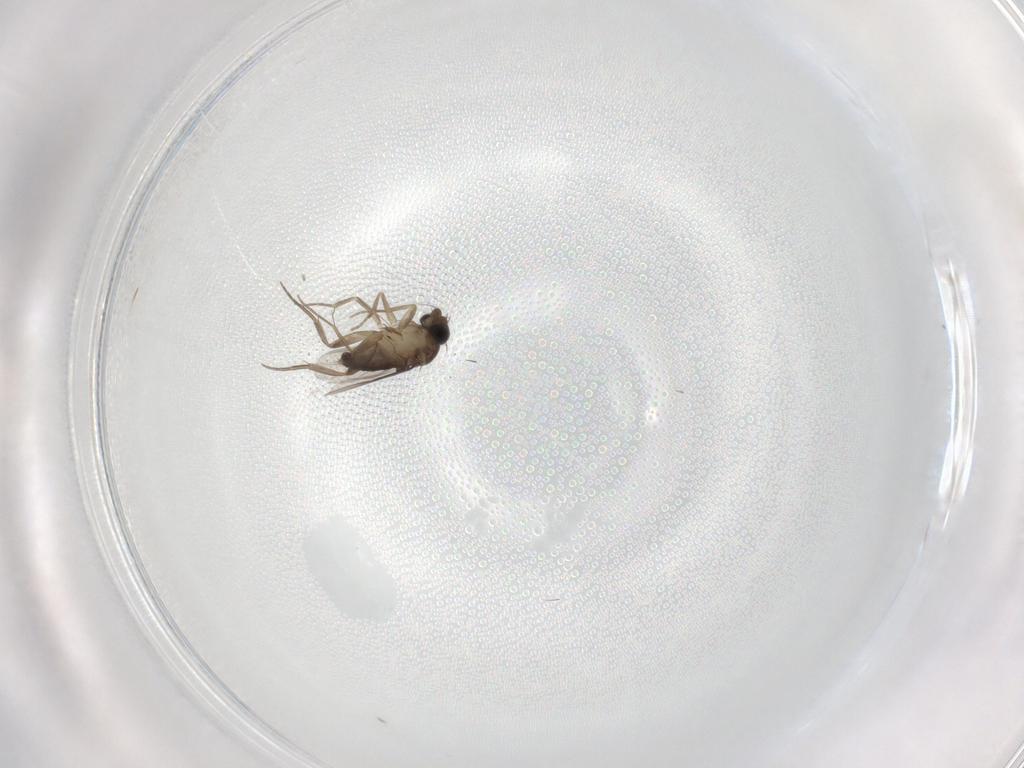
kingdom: Animalia
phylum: Arthropoda
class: Insecta
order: Diptera
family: Phoridae
